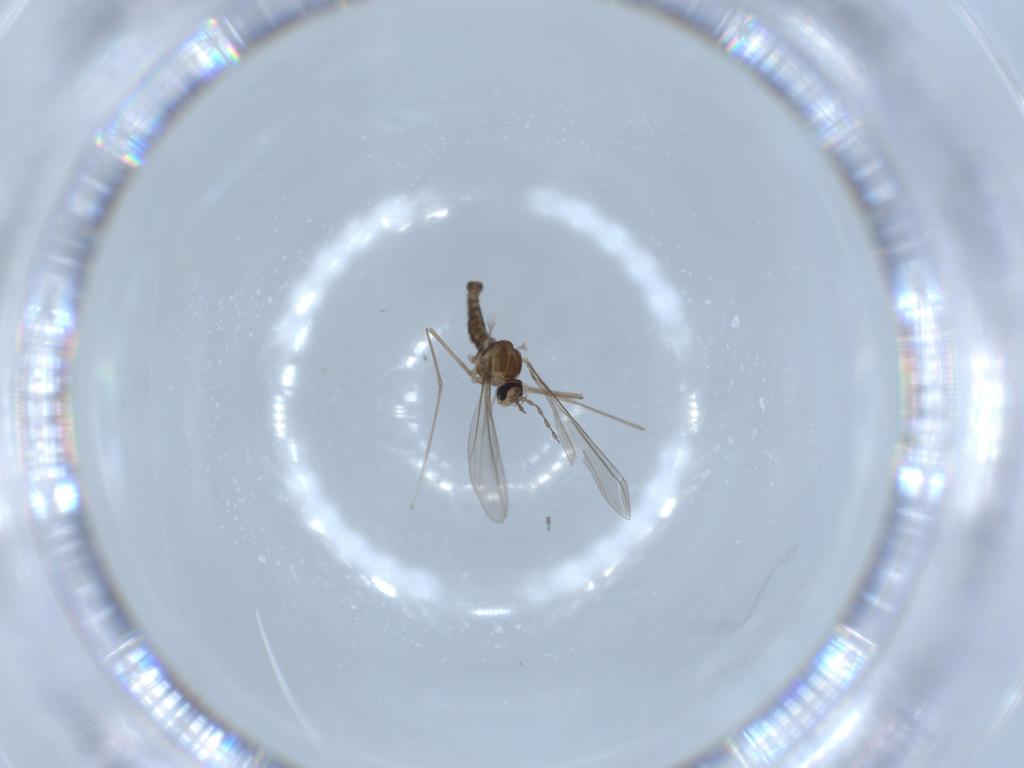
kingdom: Animalia
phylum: Arthropoda
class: Insecta
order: Diptera
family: Cecidomyiidae
